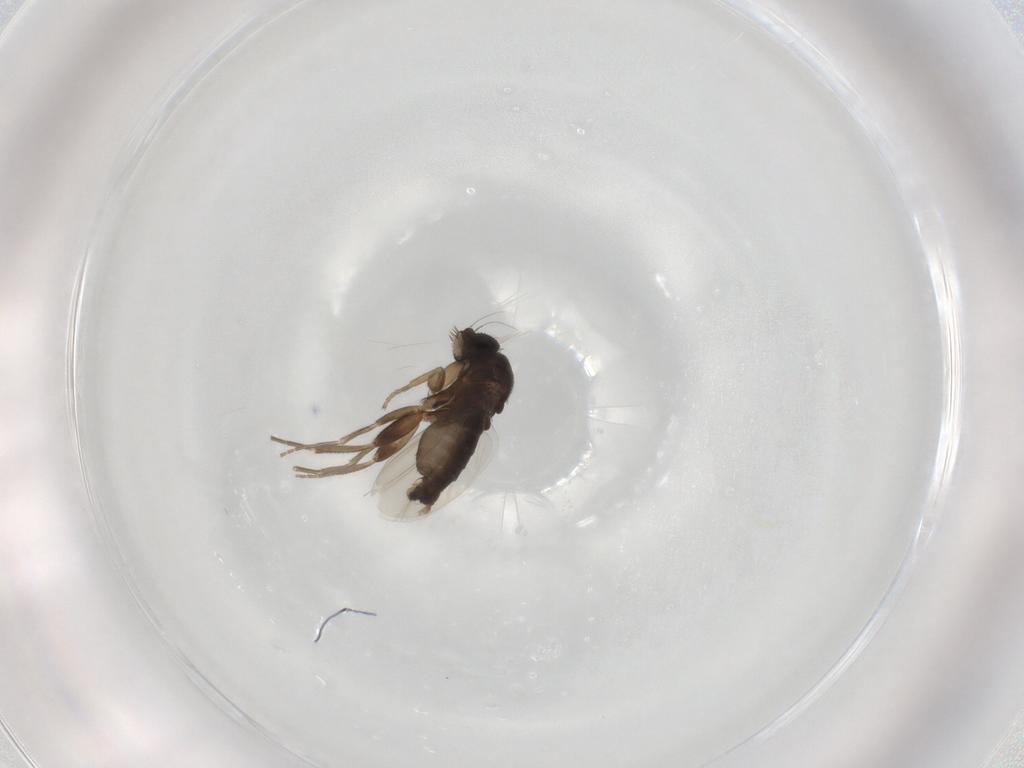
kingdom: Animalia
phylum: Arthropoda
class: Insecta
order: Diptera
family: Phoridae
